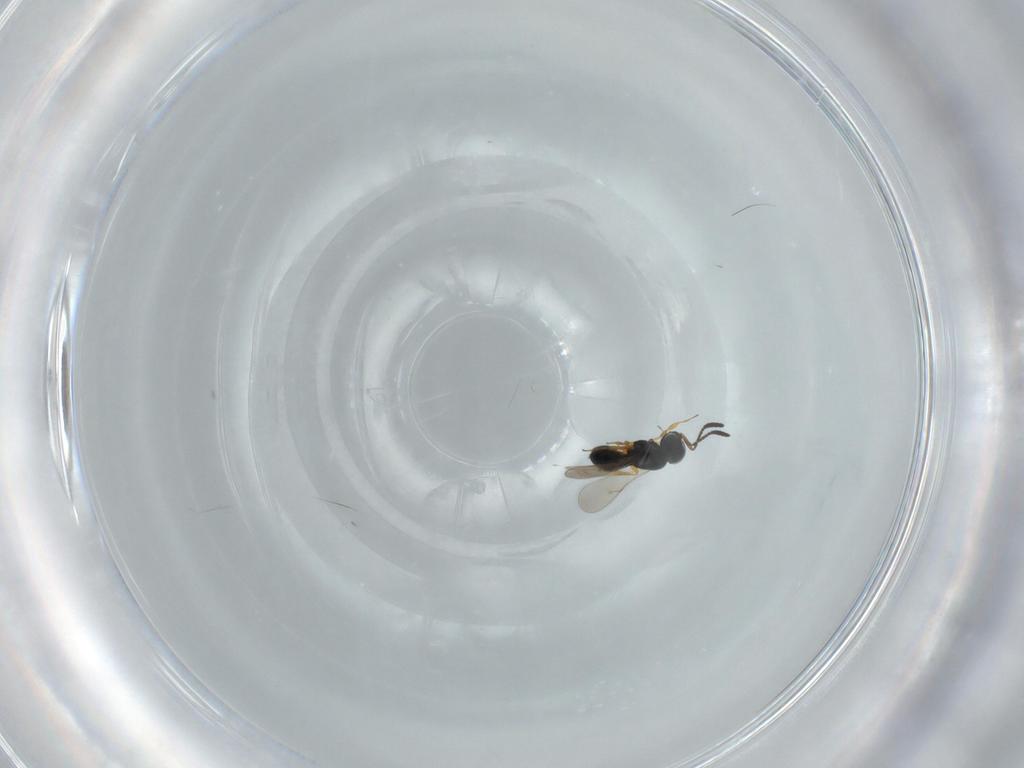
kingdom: Animalia
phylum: Arthropoda
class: Insecta
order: Hymenoptera
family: Scelionidae
